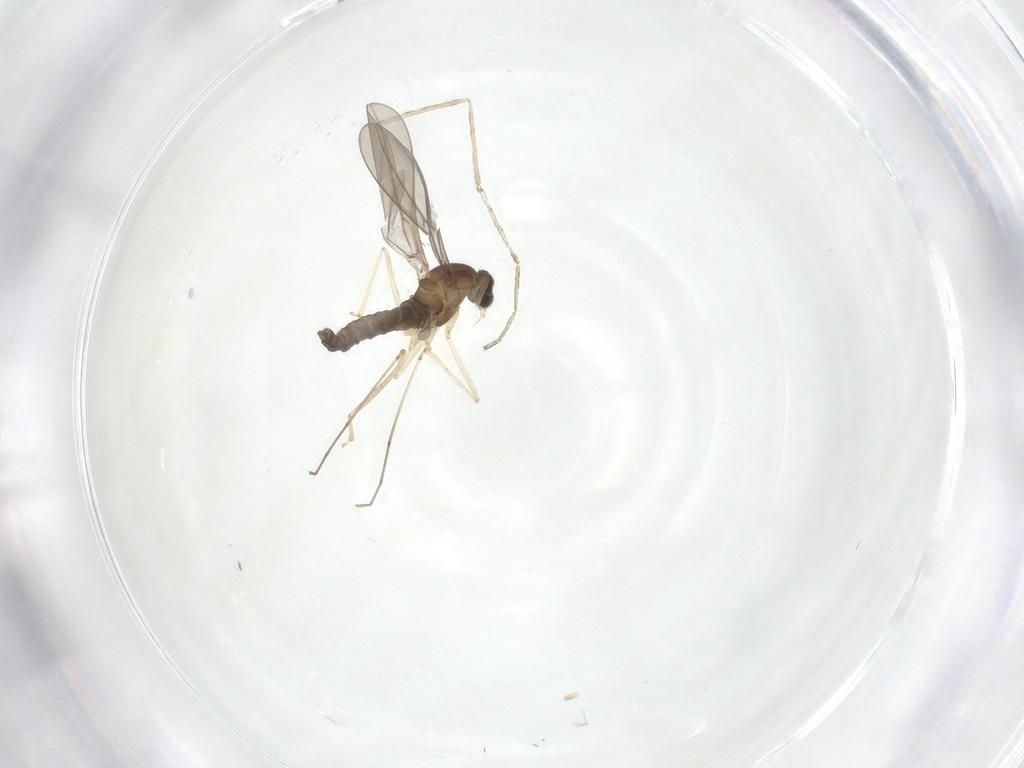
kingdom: Animalia
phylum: Arthropoda
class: Insecta
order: Diptera
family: Cecidomyiidae
